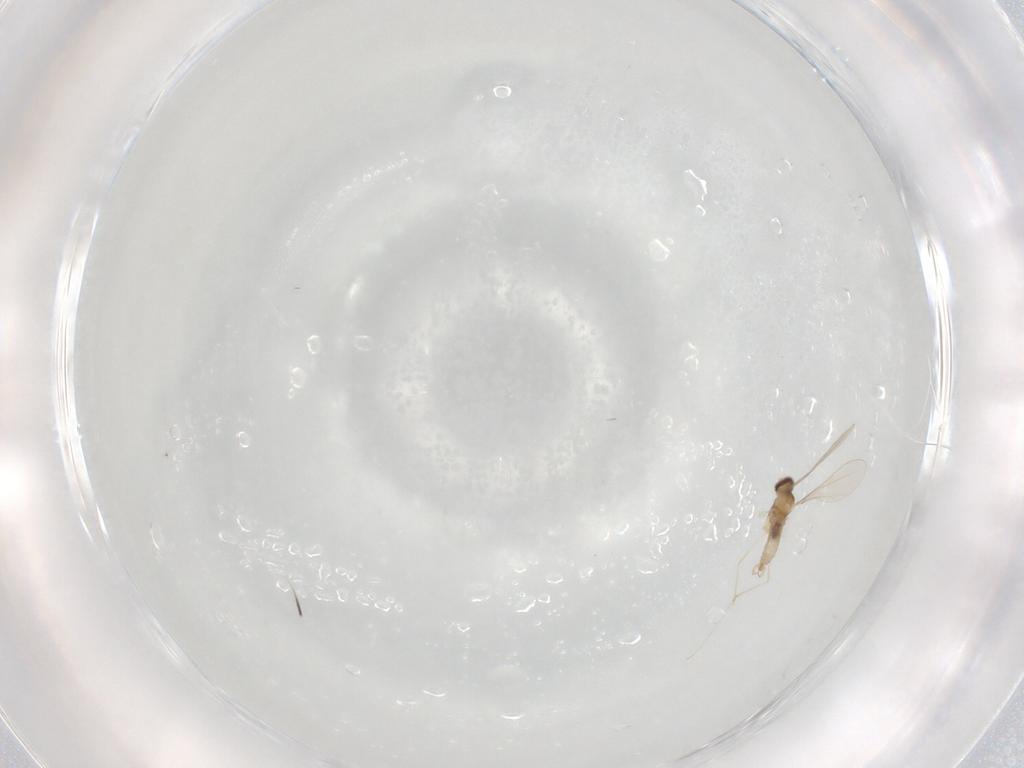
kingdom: Animalia
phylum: Arthropoda
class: Insecta
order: Diptera
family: Cecidomyiidae
